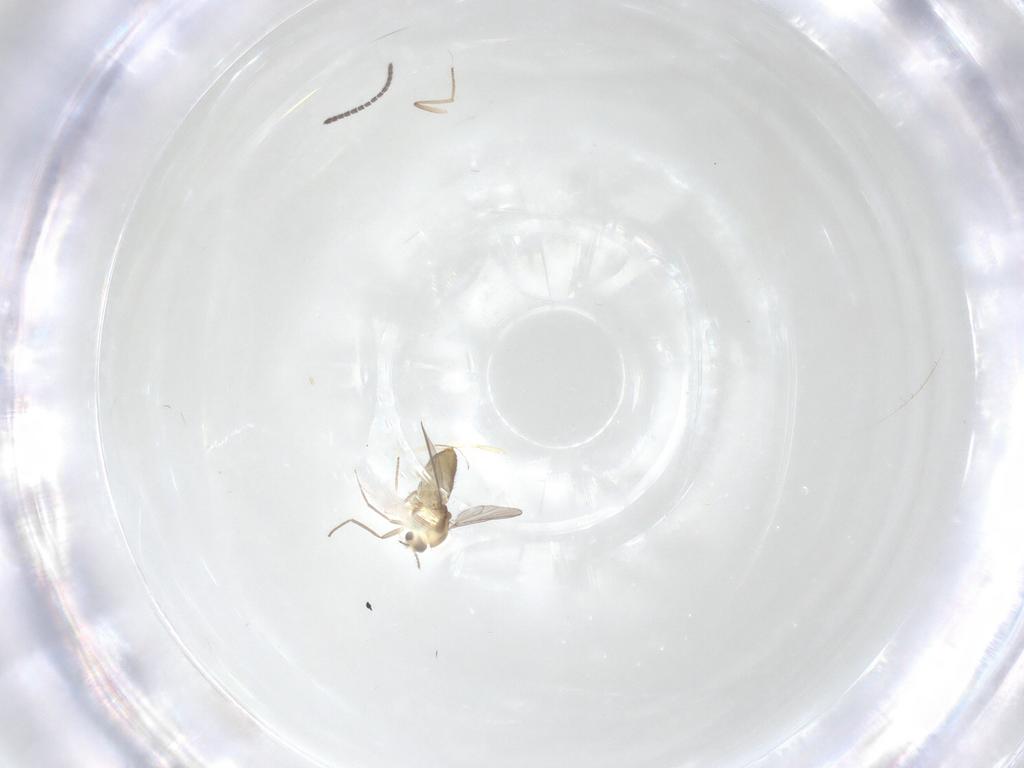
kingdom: Animalia
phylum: Arthropoda
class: Insecta
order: Diptera
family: Chironomidae
